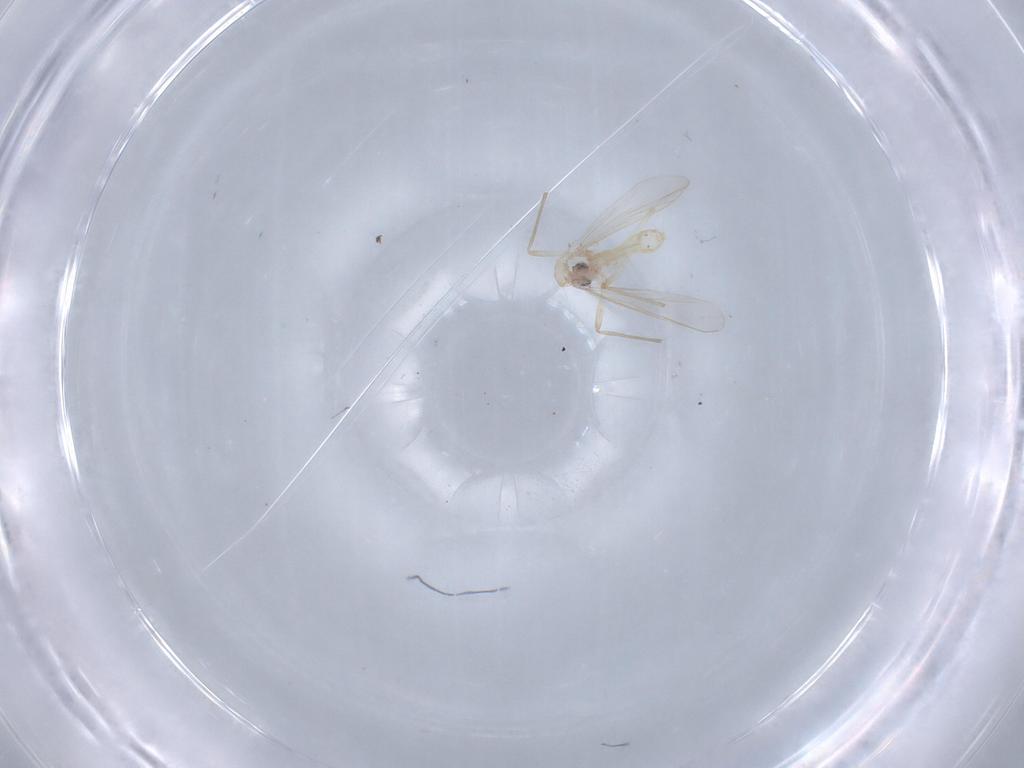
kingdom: Animalia
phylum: Arthropoda
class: Insecta
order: Diptera
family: Chironomidae
